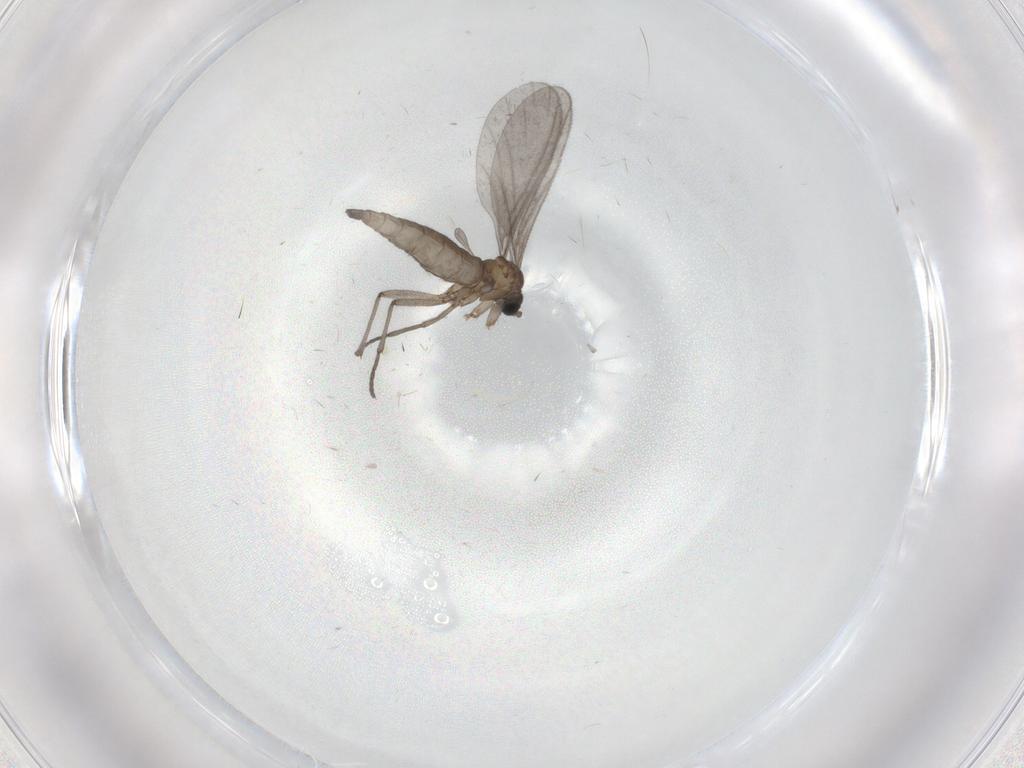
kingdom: Animalia
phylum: Arthropoda
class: Insecta
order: Diptera
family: Sciaridae
